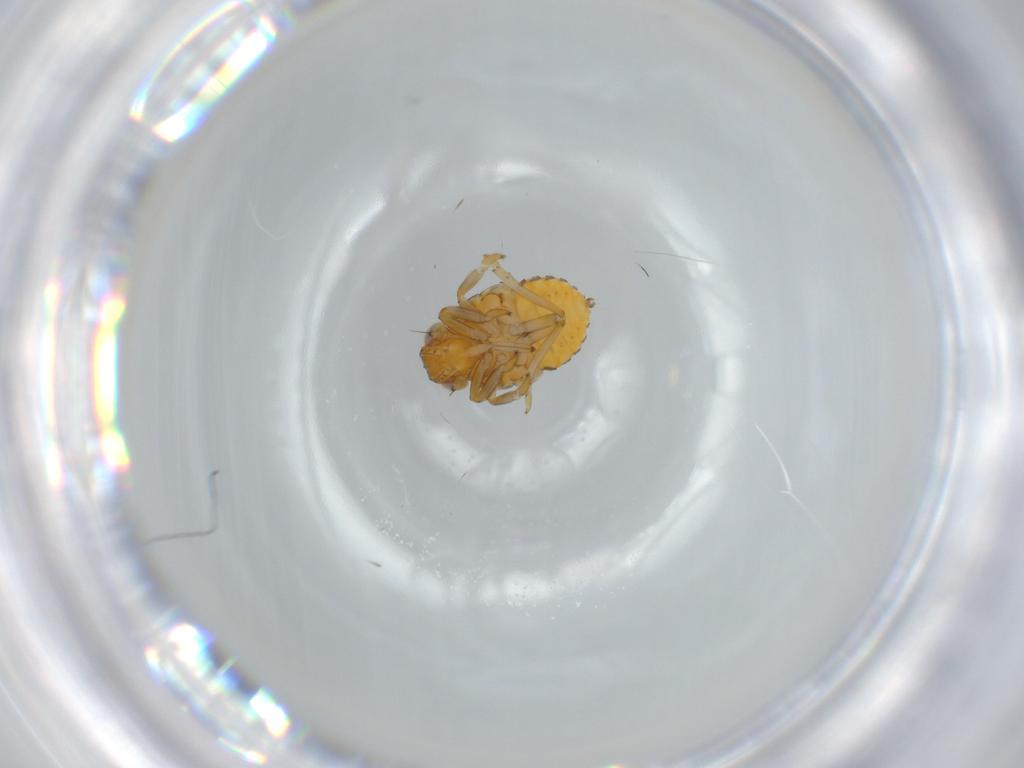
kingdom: Animalia
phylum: Arthropoda
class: Insecta
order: Hemiptera
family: Issidae
